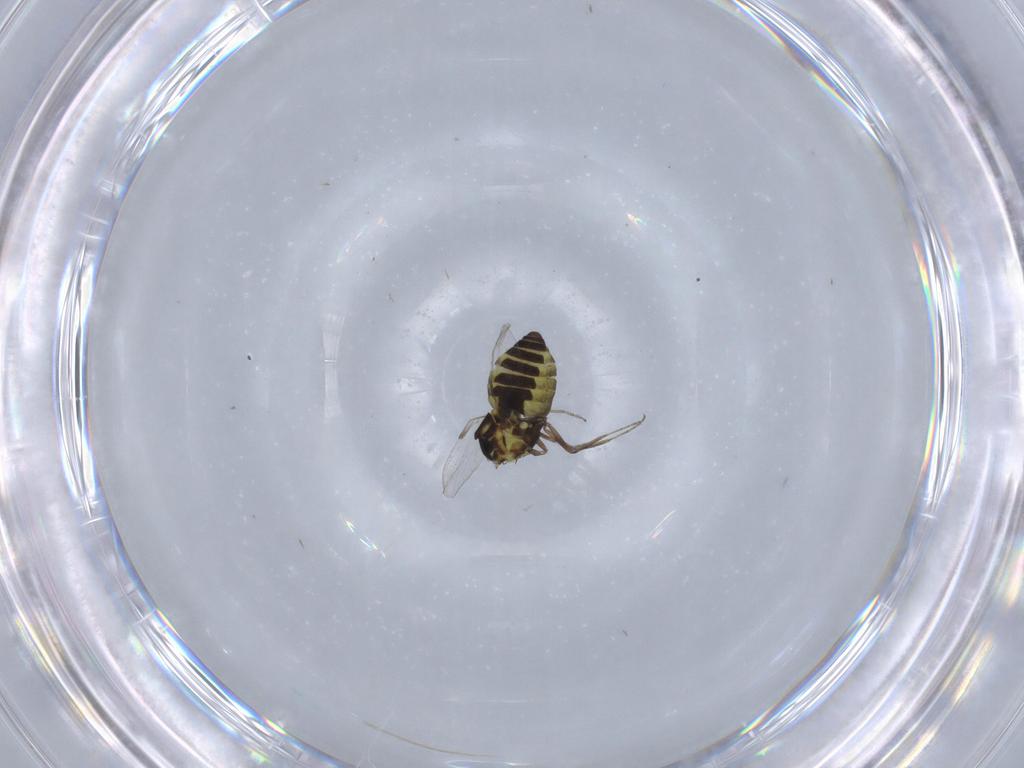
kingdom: Animalia
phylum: Arthropoda
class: Insecta
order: Diptera
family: Ceratopogonidae
